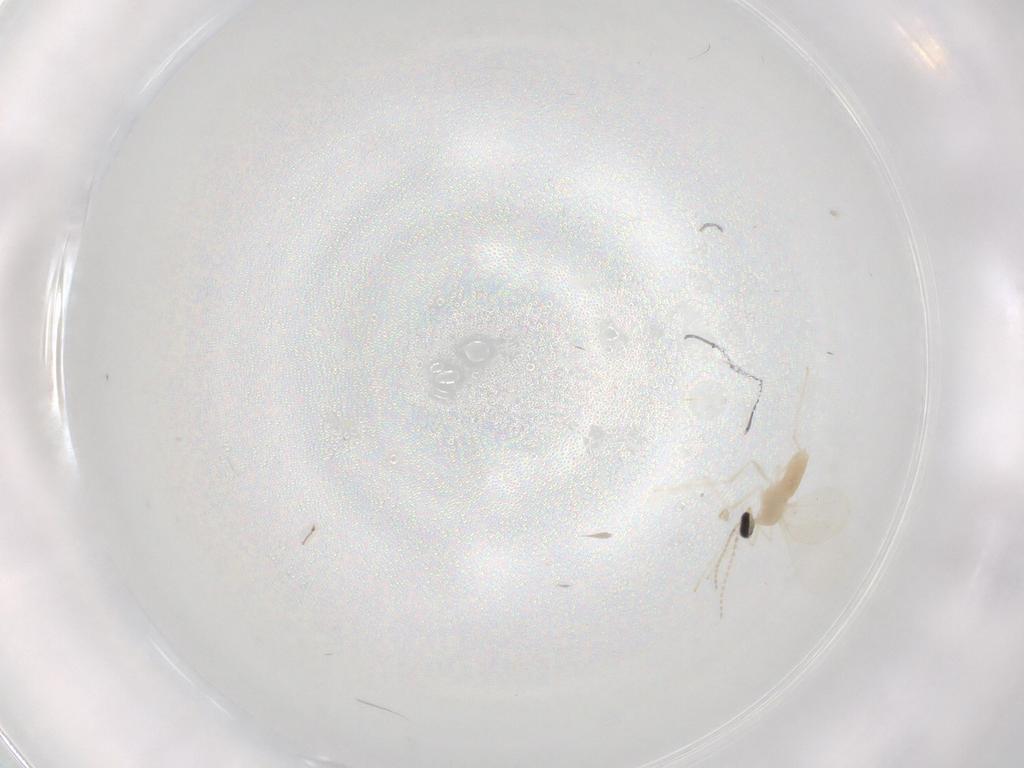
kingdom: Animalia
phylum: Arthropoda
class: Insecta
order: Diptera
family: Cecidomyiidae
